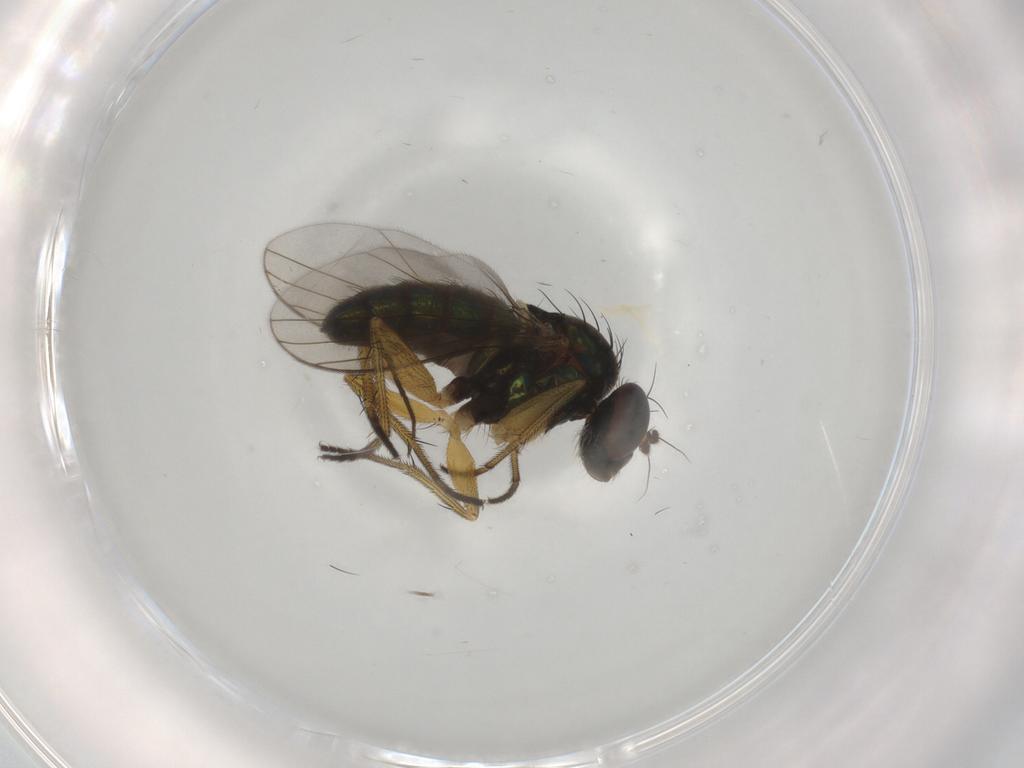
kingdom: Animalia
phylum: Arthropoda
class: Insecta
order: Diptera
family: Chironomidae
